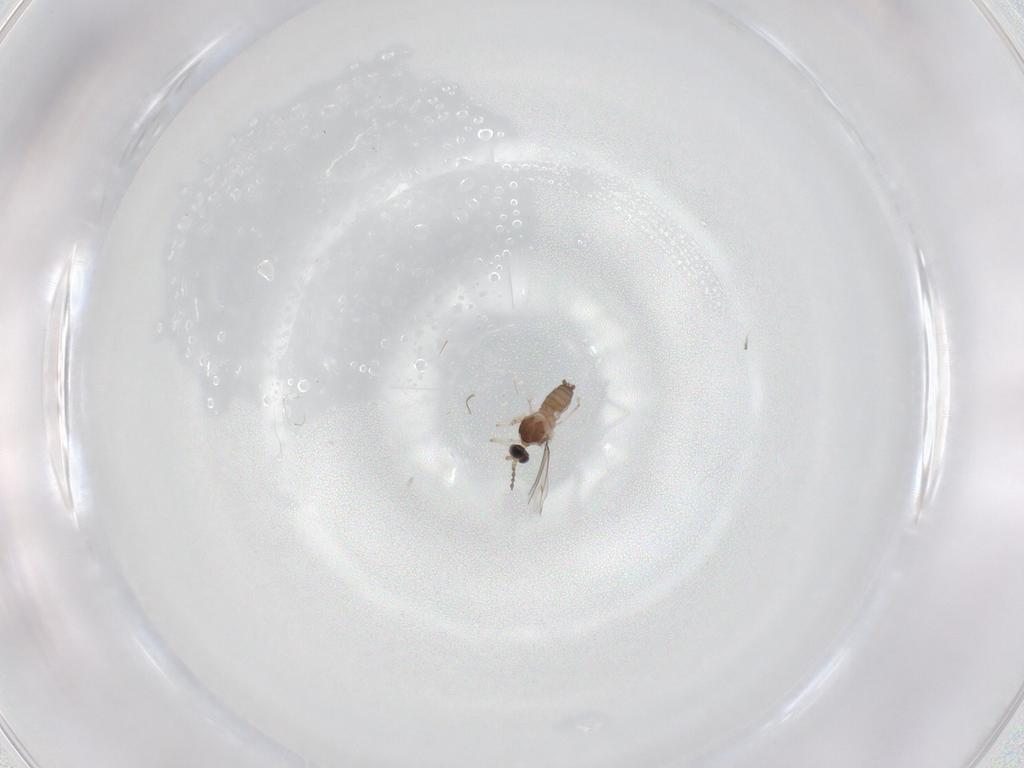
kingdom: Animalia
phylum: Arthropoda
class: Insecta
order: Diptera
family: Cecidomyiidae
